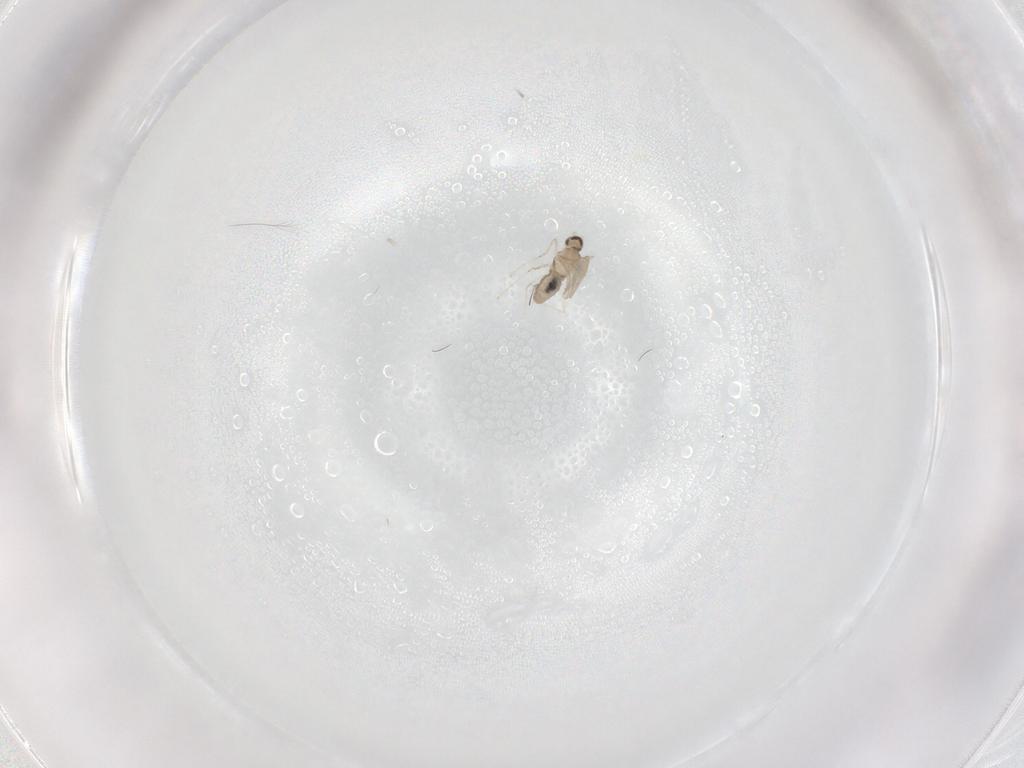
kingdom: Animalia
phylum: Arthropoda
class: Insecta
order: Diptera
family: Cecidomyiidae
